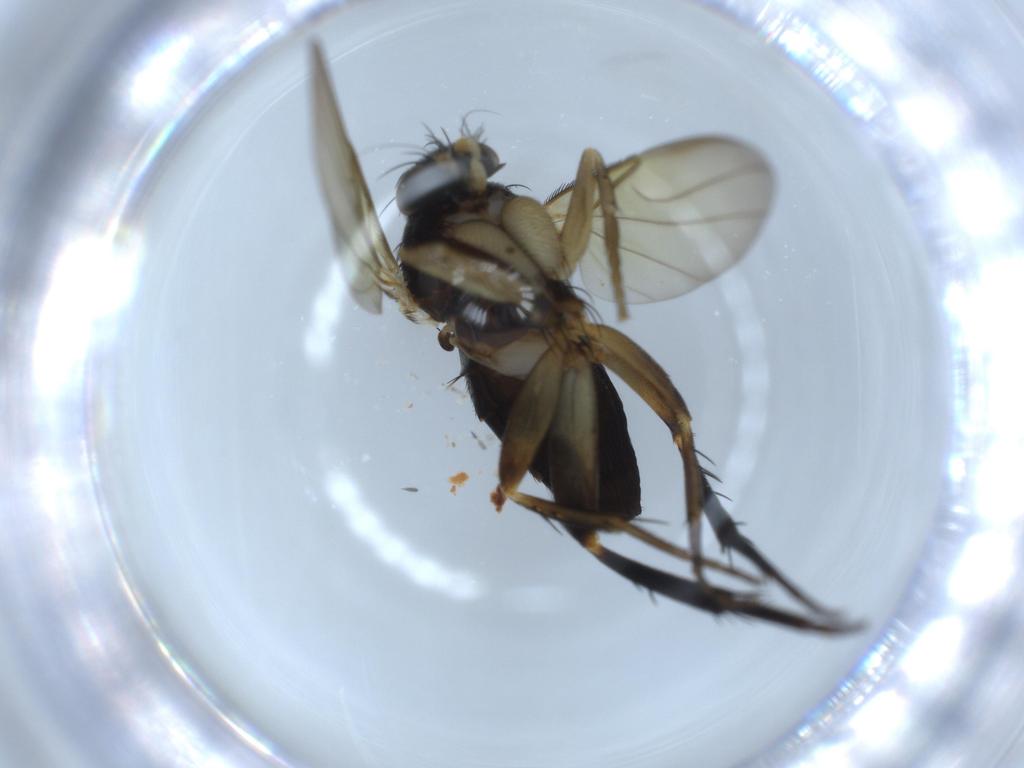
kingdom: Animalia
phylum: Arthropoda
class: Insecta
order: Diptera
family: Phoridae
